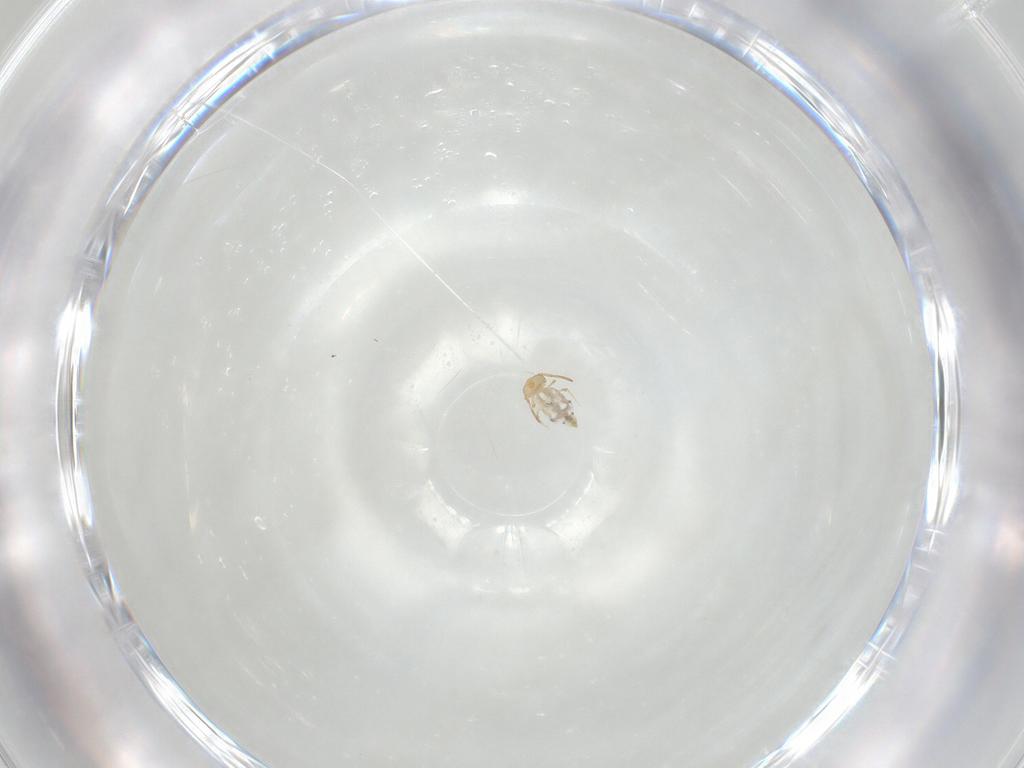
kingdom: Animalia
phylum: Arthropoda
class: Collembola
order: Symphypleona
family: Bourletiellidae
